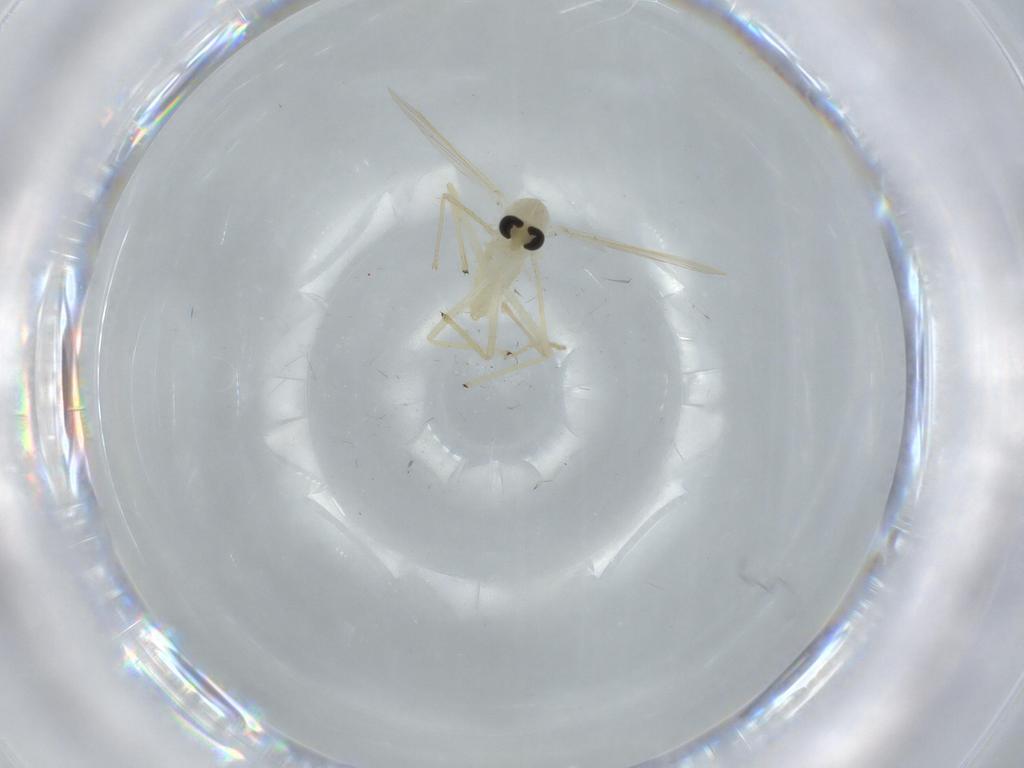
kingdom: Animalia
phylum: Arthropoda
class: Insecta
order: Diptera
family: Chironomidae
